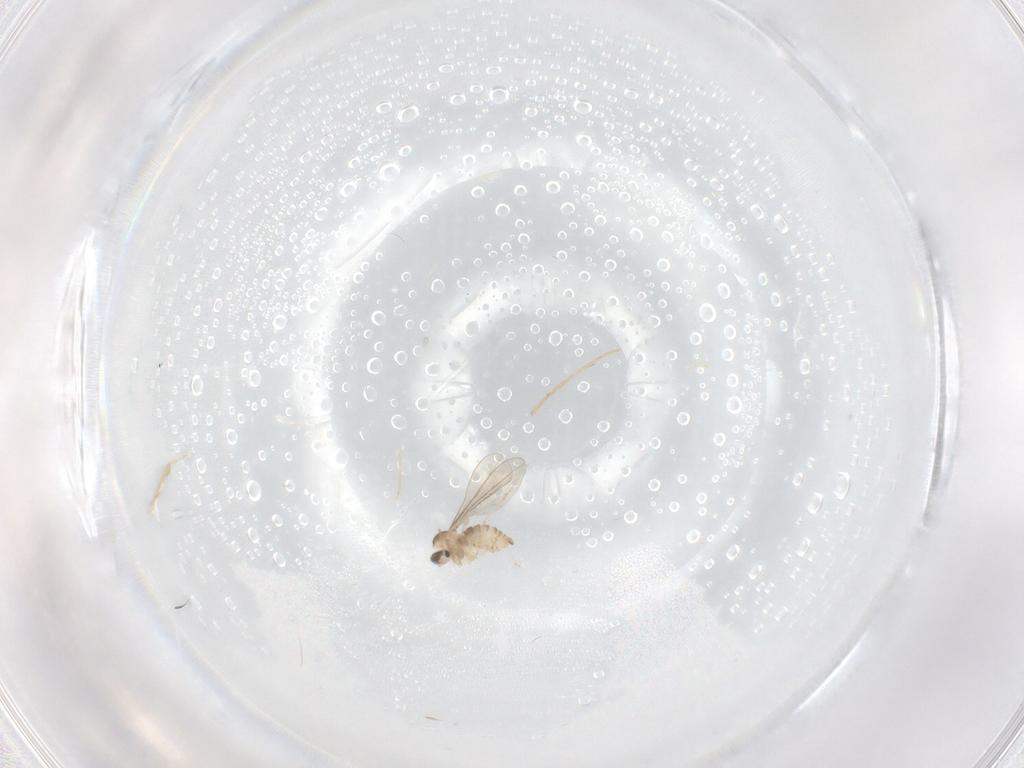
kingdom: Animalia
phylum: Arthropoda
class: Insecta
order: Diptera
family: Cecidomyiidae
